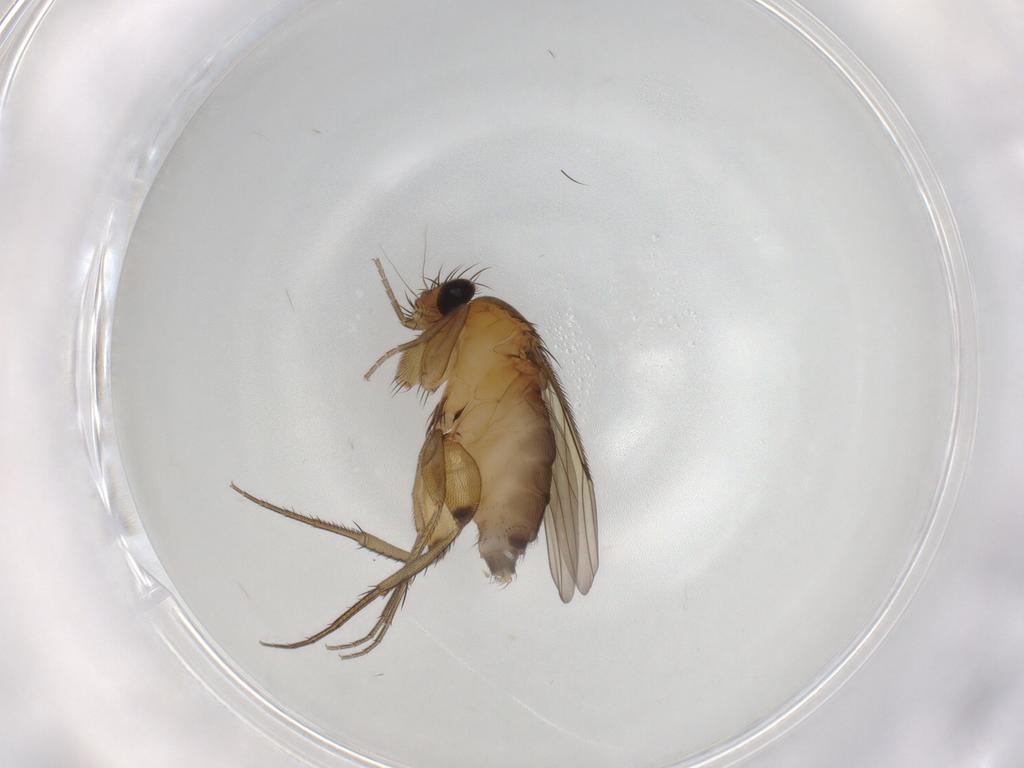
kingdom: Animalia
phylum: Arthropoda
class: Insecta
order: Diptera
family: Phoridae
